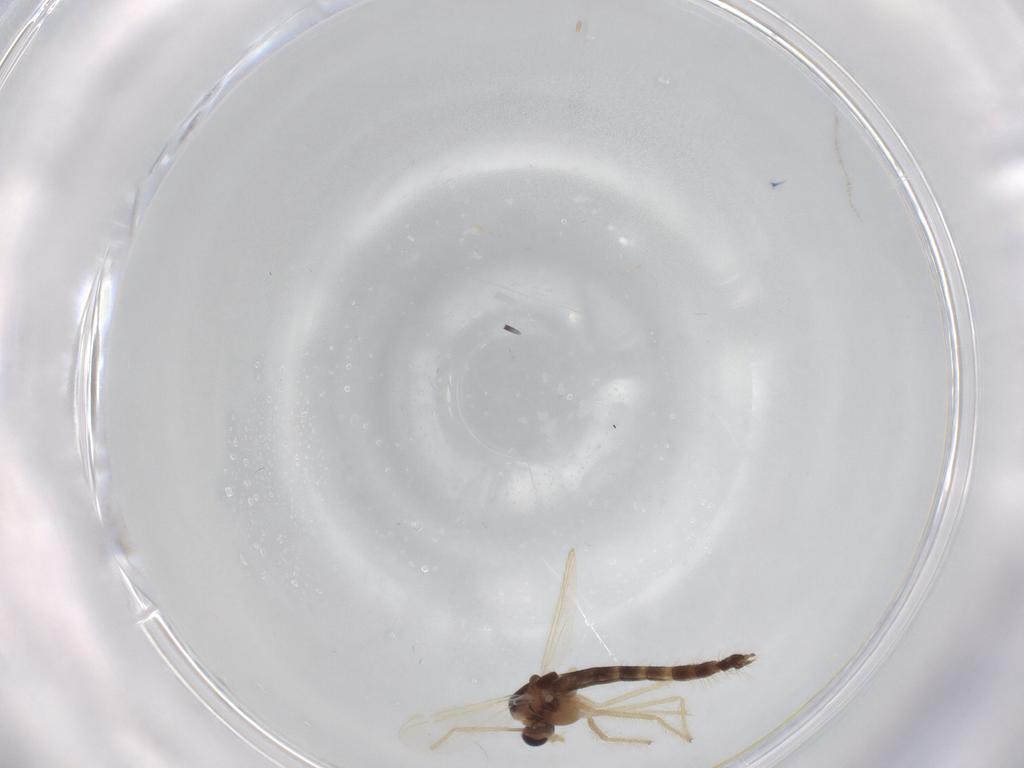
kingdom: Animalia
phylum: Arthropoda
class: Insecta
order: Diptera
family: Chironomidae
